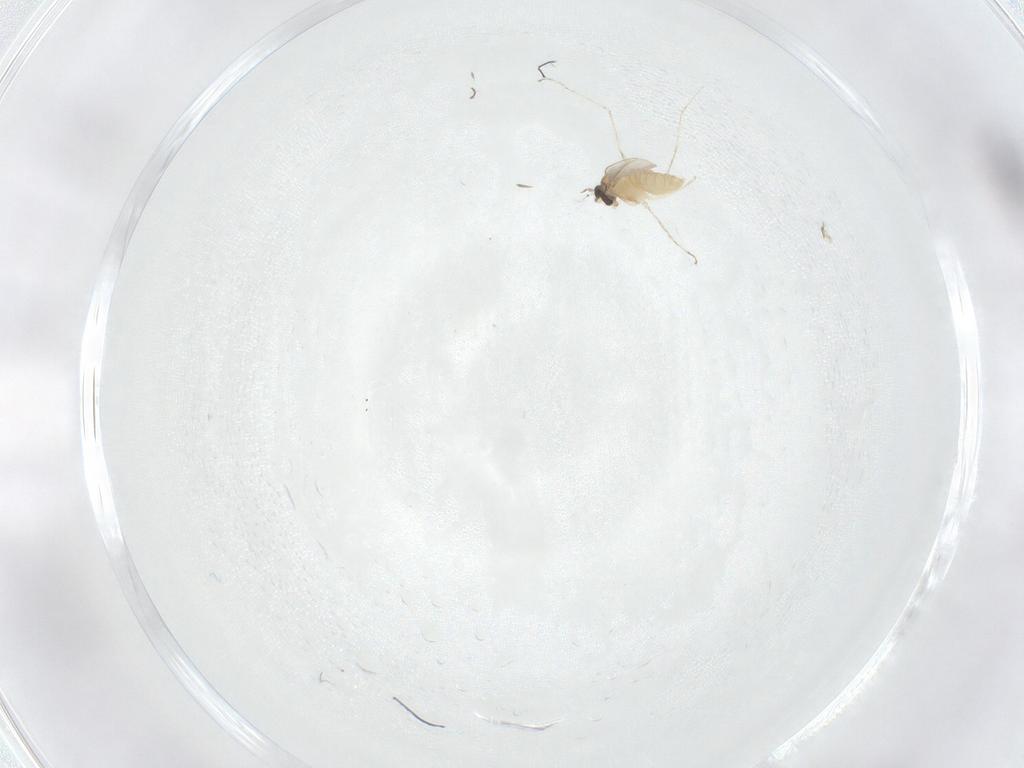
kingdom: Animalia
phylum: Arthropoda
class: Insecta
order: Diptera
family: Cecidomyiidae
